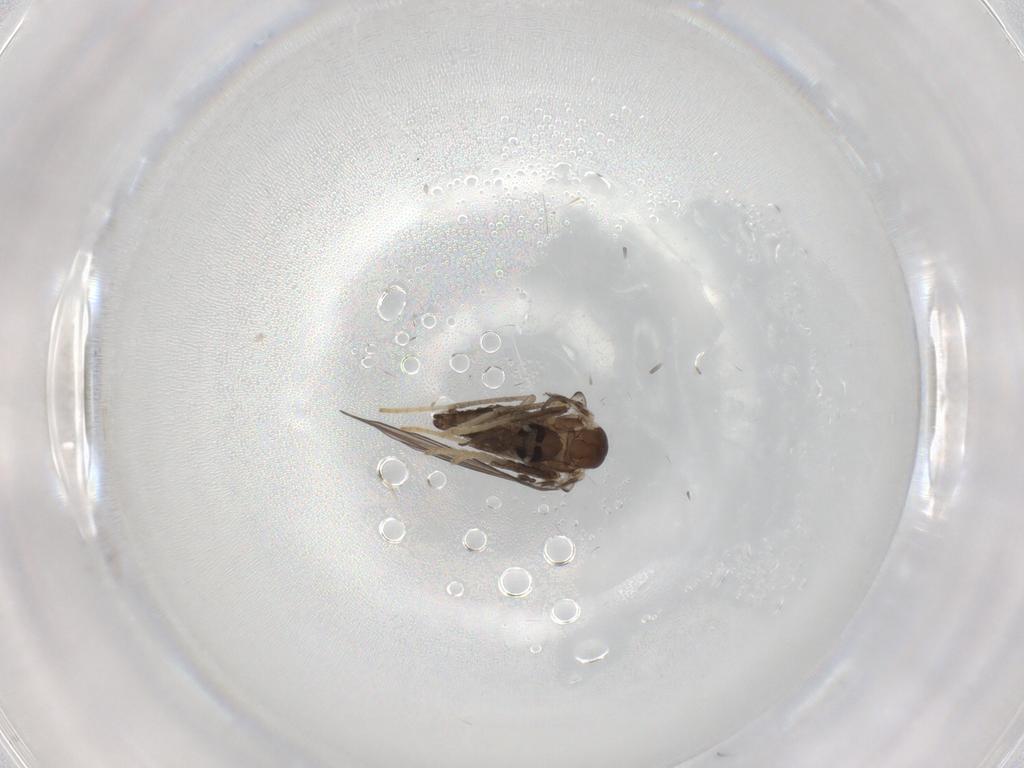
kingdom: Animalia
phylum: Arthropoda
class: Insecta
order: Diptera
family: Psychodidae
